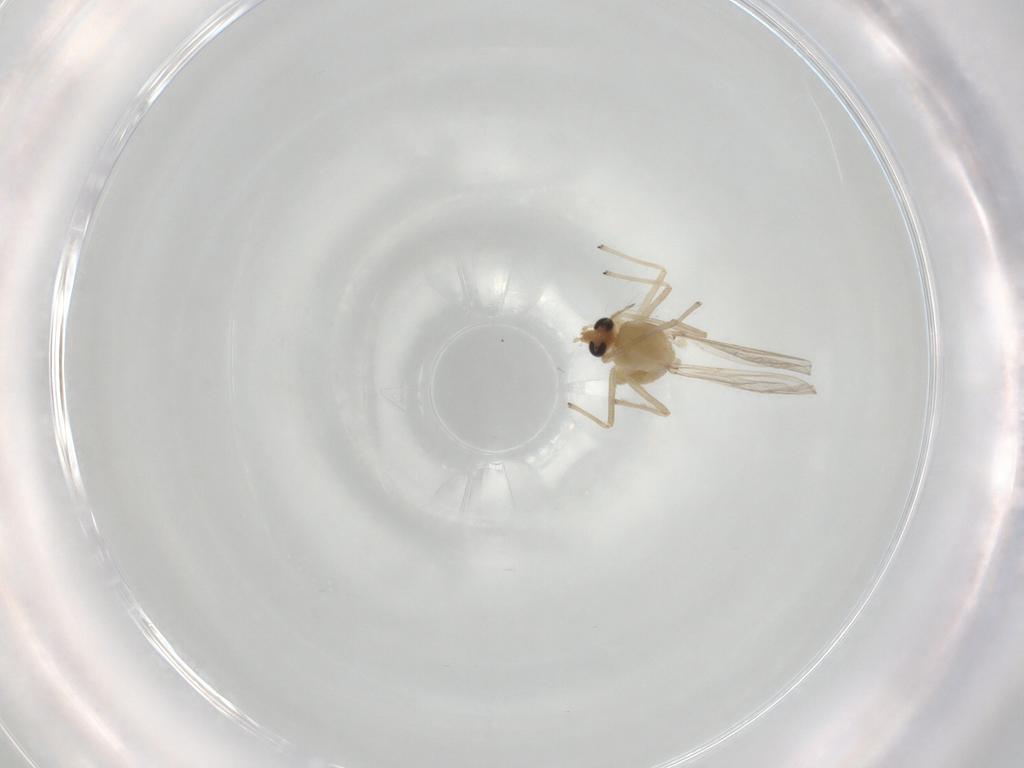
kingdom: Animalia
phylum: Arthropoda
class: Insecta
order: Diptera
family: Chironomidae
